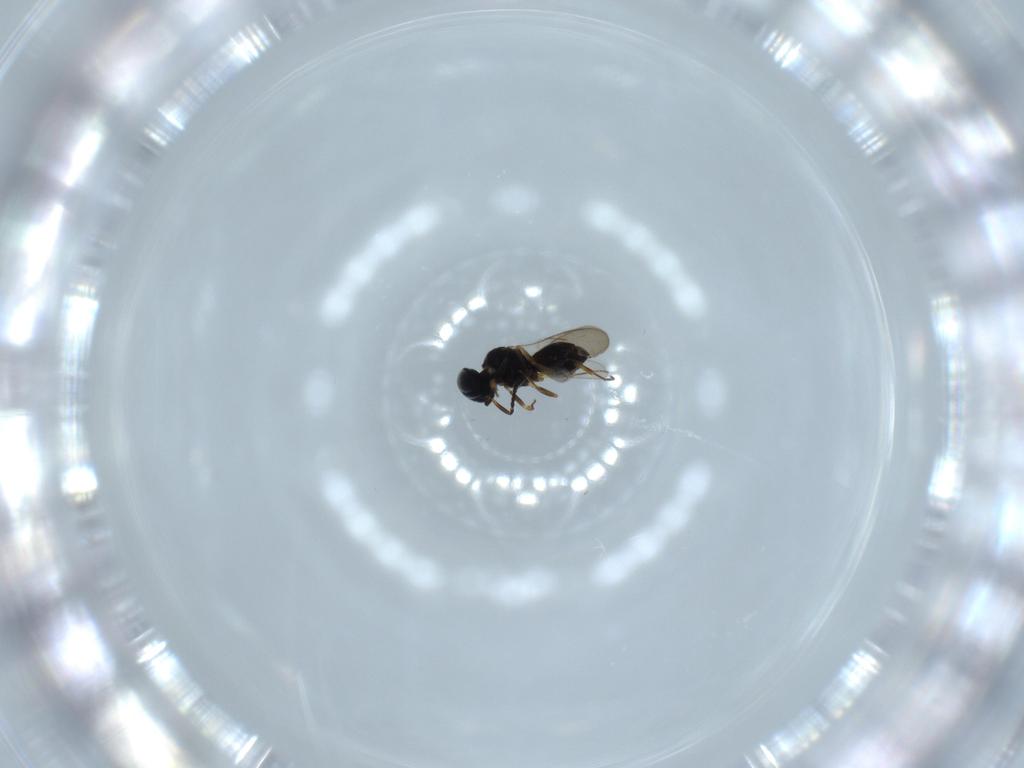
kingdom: Animalia
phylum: Arthropoda
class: Insecta
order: Hymenoptera
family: Scelionidae
